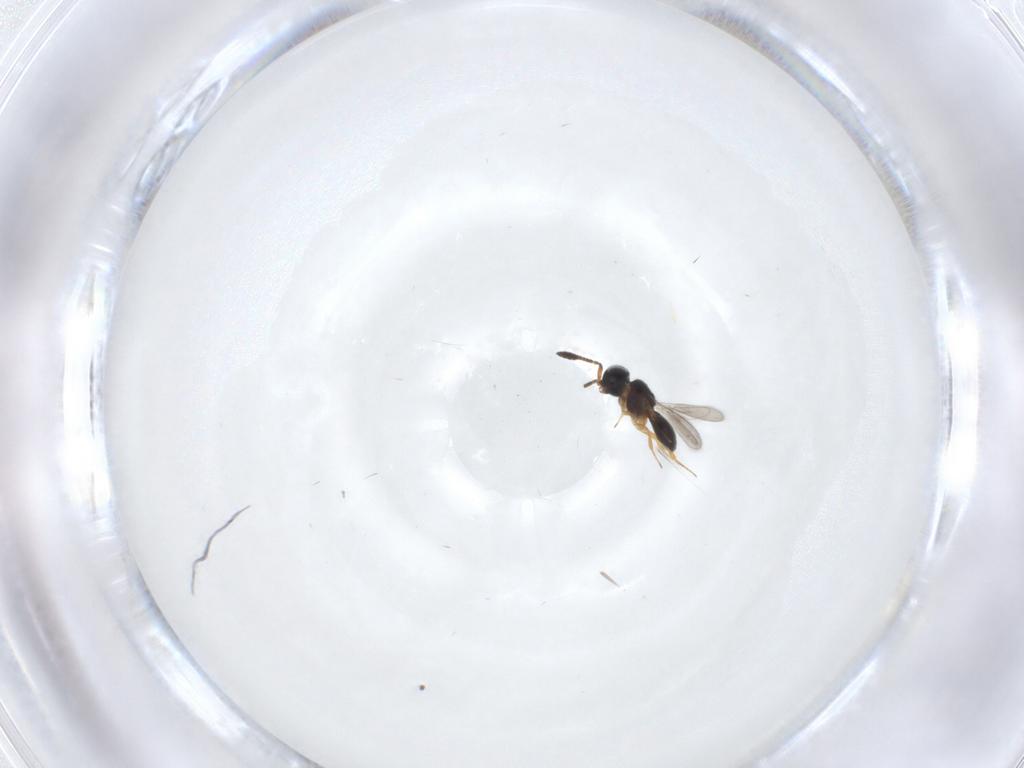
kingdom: Animalia
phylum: Arthropoda
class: Insecta
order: Hymenoptera
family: Scelionidae
